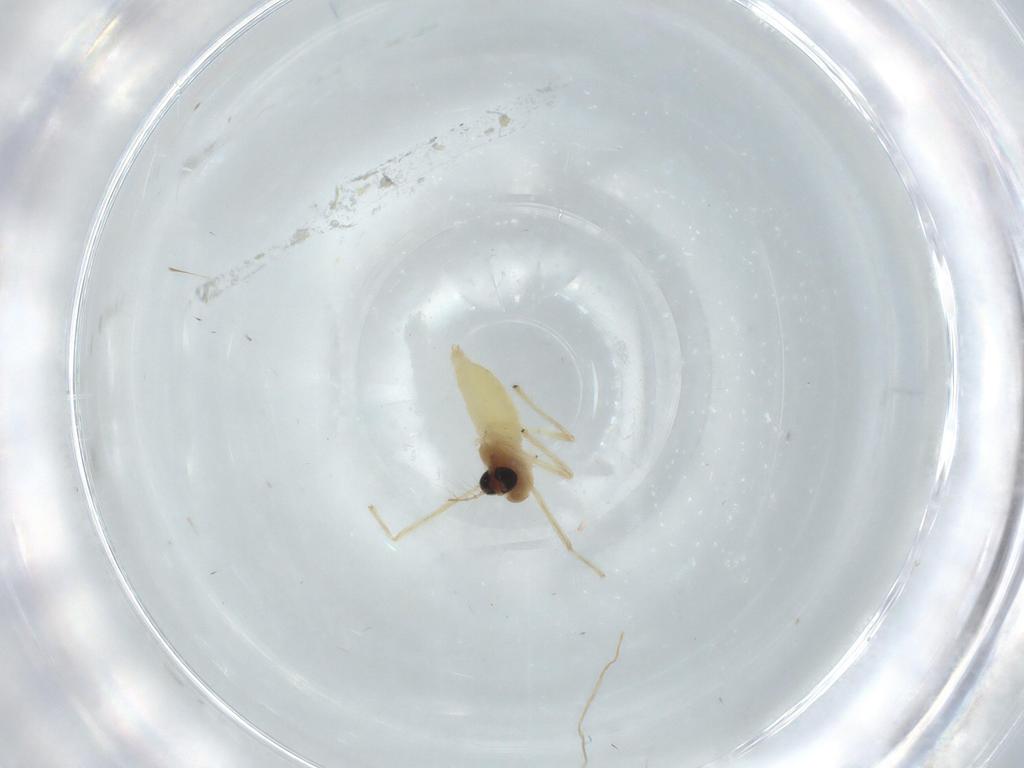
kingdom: Animalia
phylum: Arthropoda
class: Insecta
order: Diptera
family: Chironomidae
